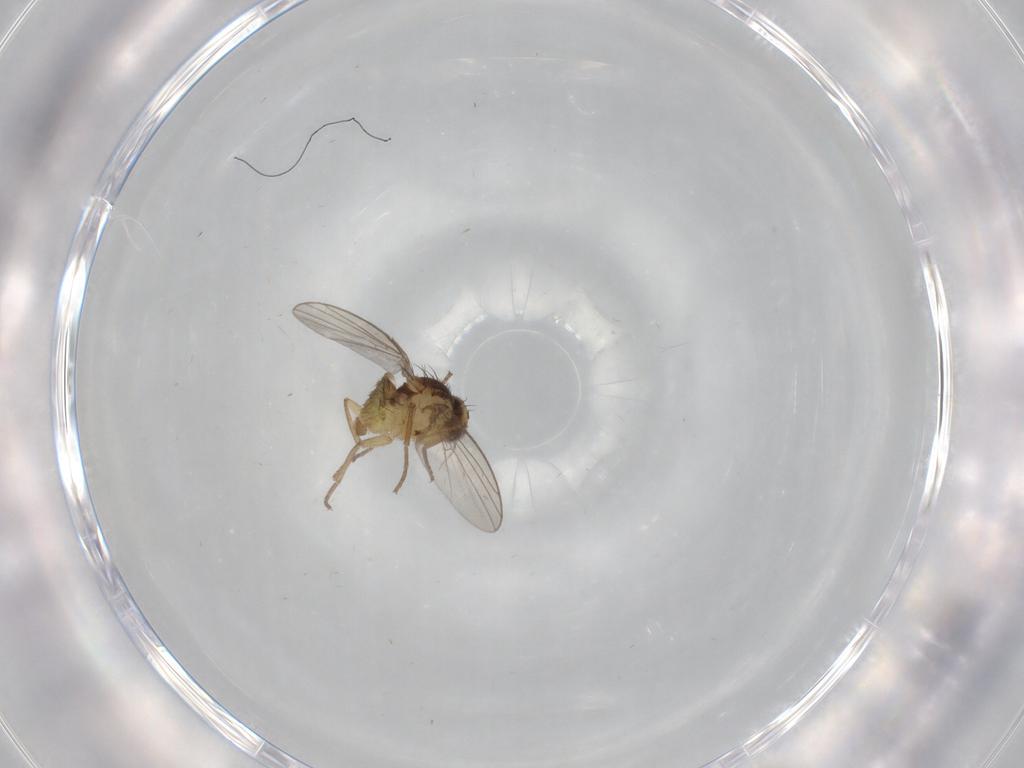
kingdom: Animalia
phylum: Arthropoda
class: Insecta
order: Diptera
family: Agromyzidae
